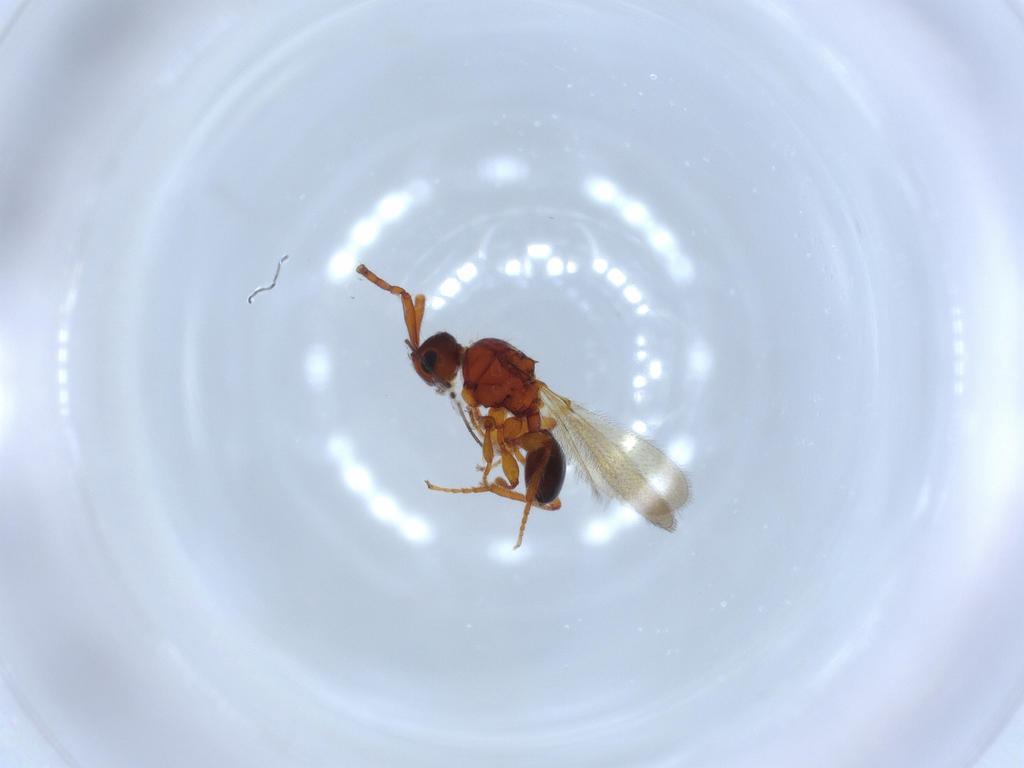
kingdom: Animalia
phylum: Arthropoda
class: Insecta
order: Hymenoptera
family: Diapriidae
